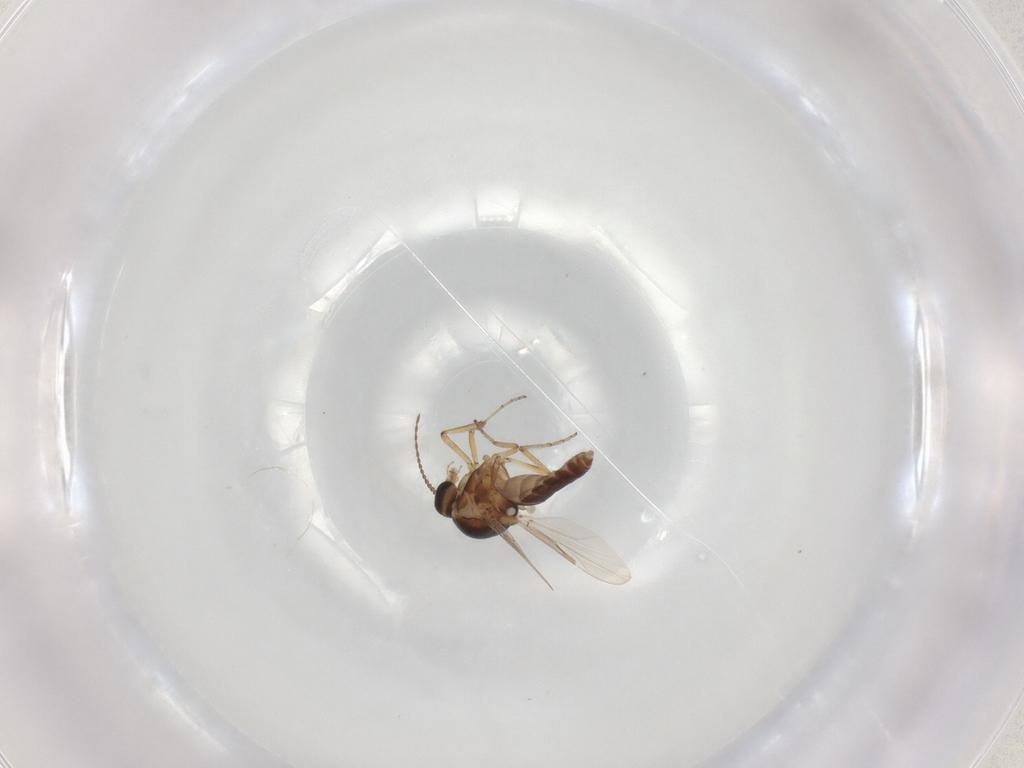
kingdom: Animalia
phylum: Arthropoda
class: Insecta
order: Diptera
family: Ceratopogonidae
